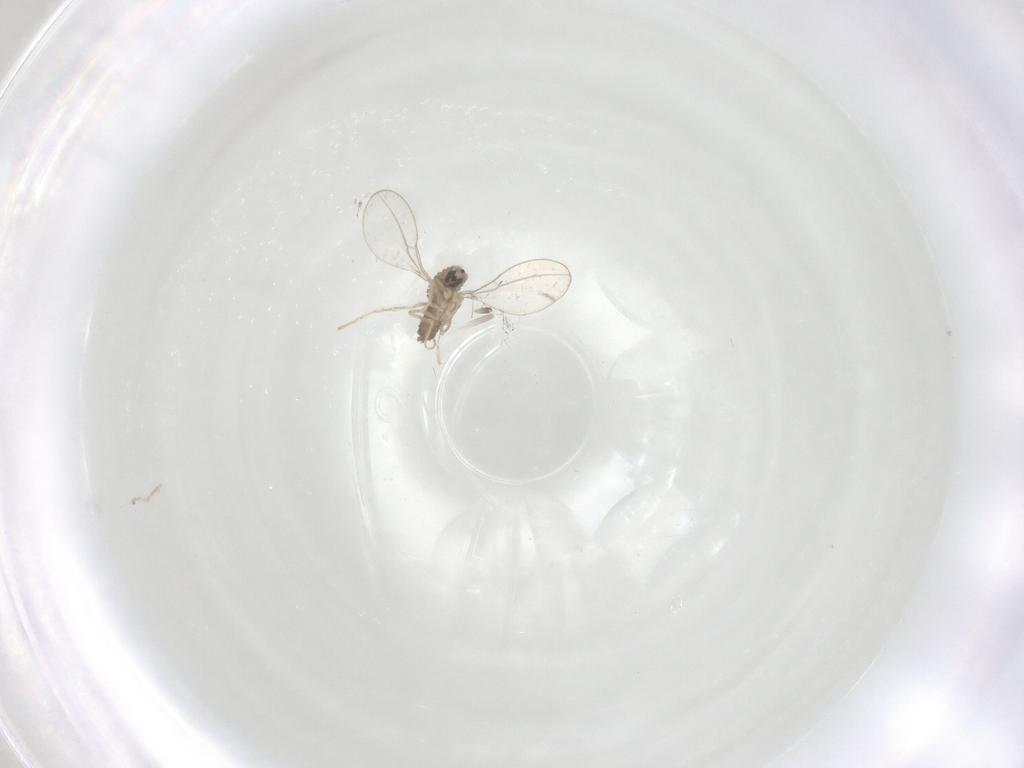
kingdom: Animalia
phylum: Arthropoda
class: Insecta
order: Diptera
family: Cecidomyiidae
